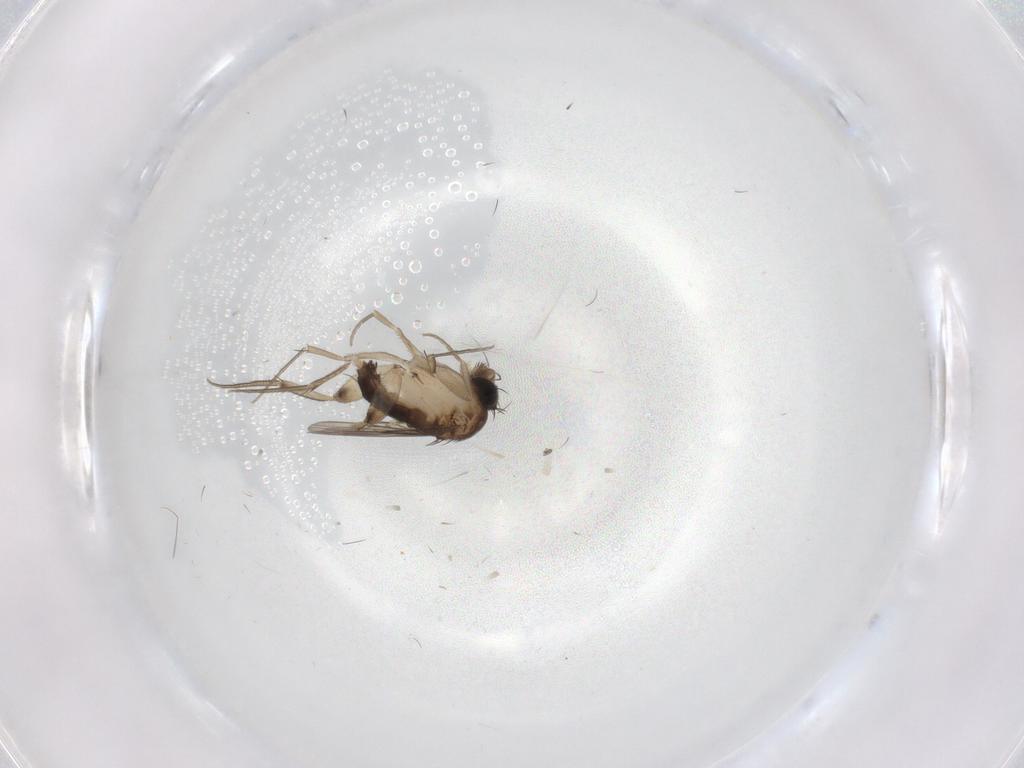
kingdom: Animalia
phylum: Arthropoda
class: Insecta
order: Diptera
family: Phoridae
